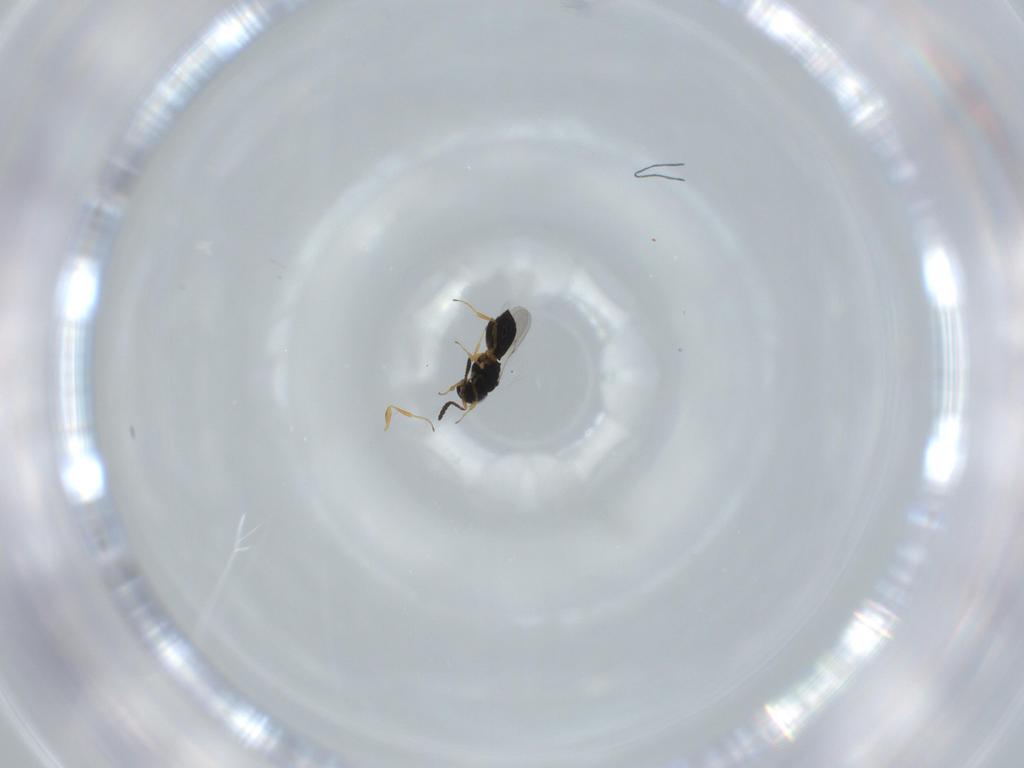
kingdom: Animalia
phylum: Arthropoda
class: Insecta
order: Hymenoptera
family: Scelionidae
